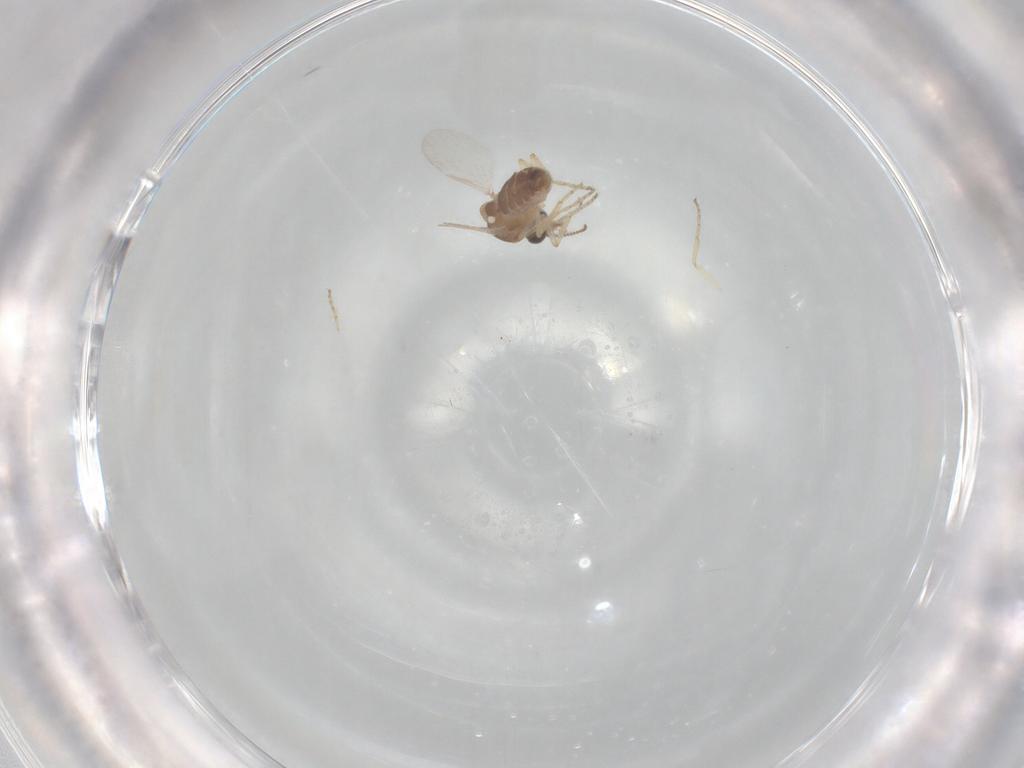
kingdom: Animalia
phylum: Arthropoda
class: Insecta
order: Diptera
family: Ceratopogonidae
